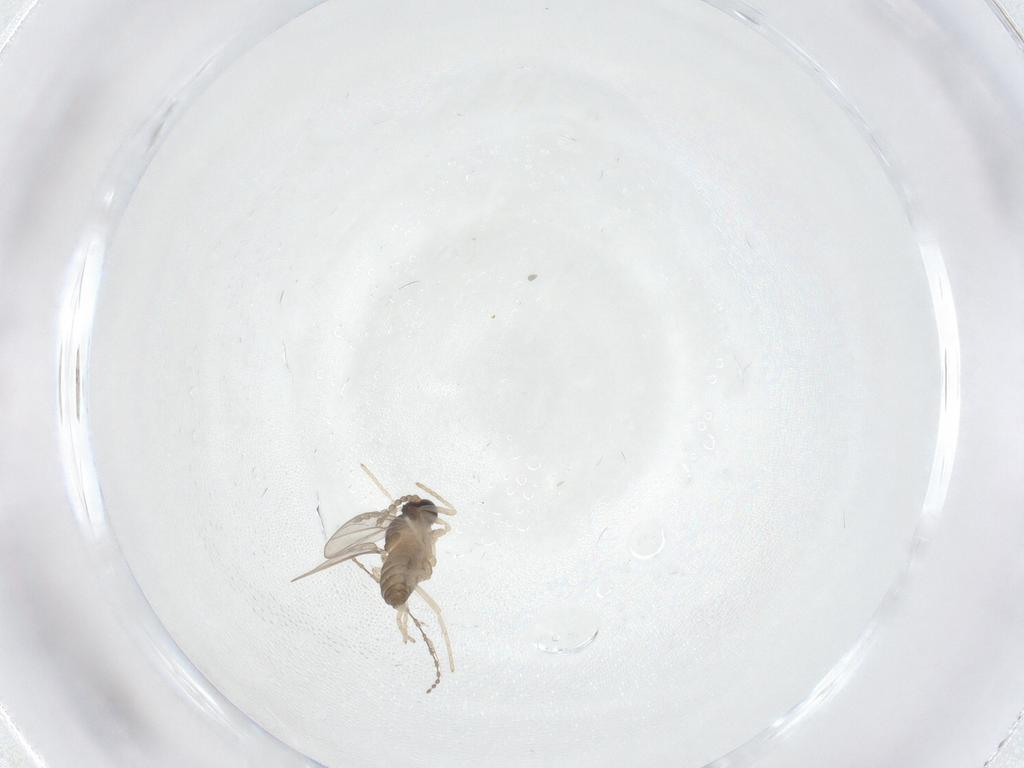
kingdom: Animalia
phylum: Arthropoda
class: Insecta
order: Diptera
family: Cecidomyiidae
